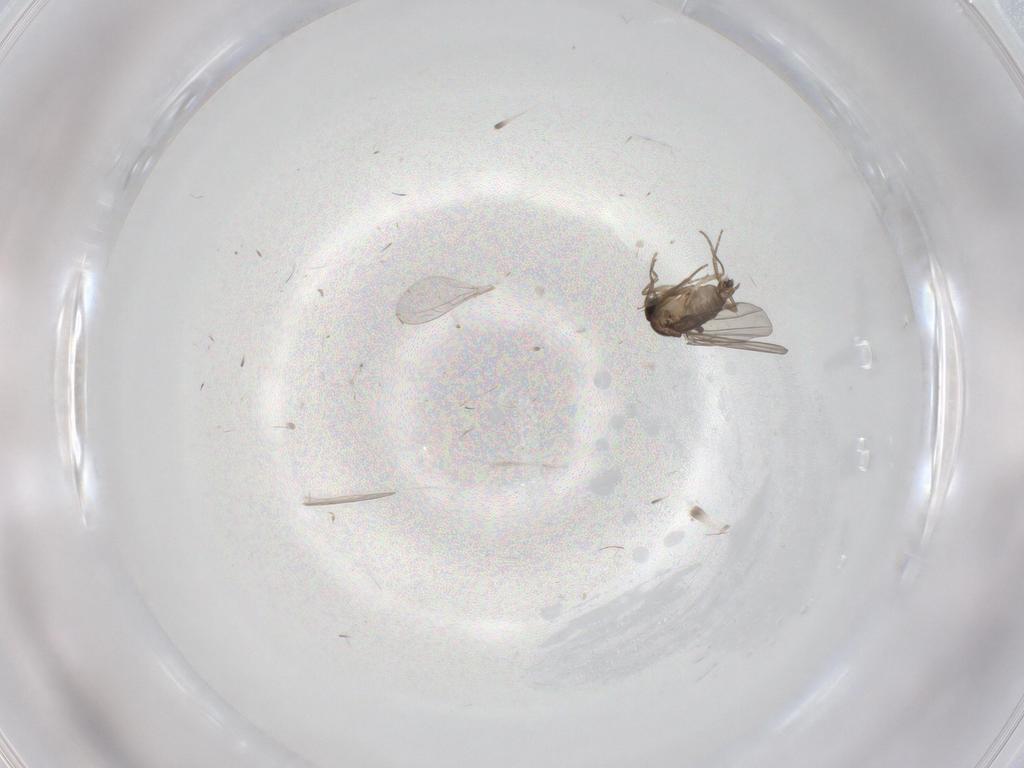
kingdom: Animalia
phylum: Arthropoda
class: Insecta
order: Diptera
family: Phoridae
